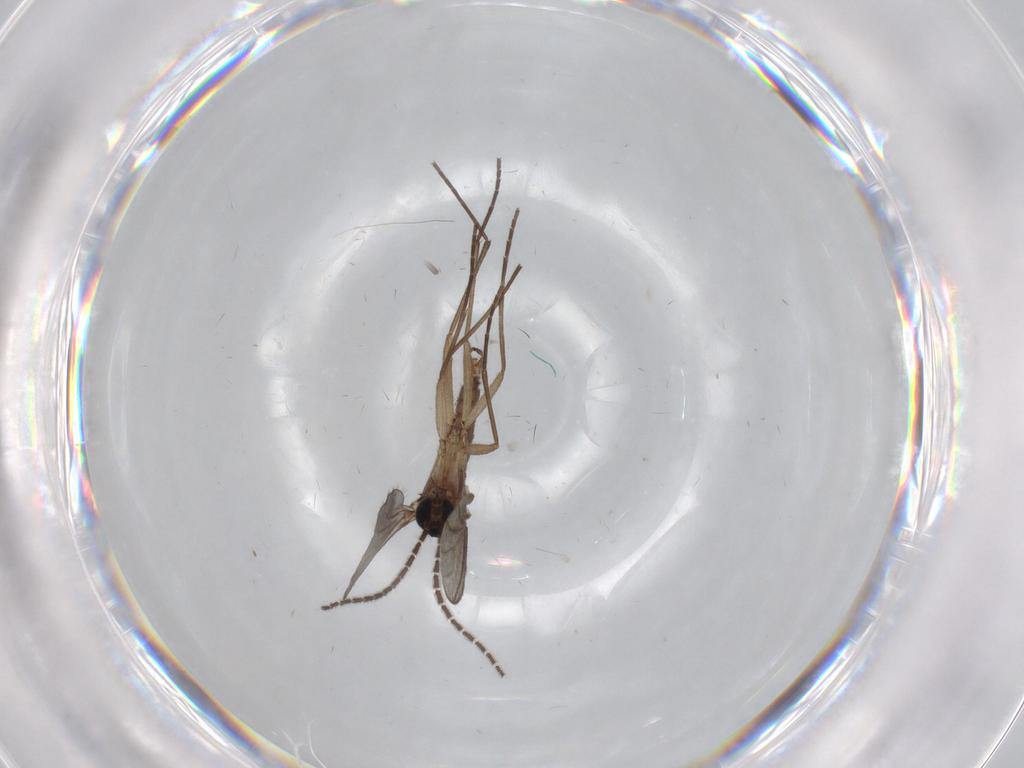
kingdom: Animalia
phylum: Arthropoda
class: Insecta
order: Diptera
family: Sciaridae
